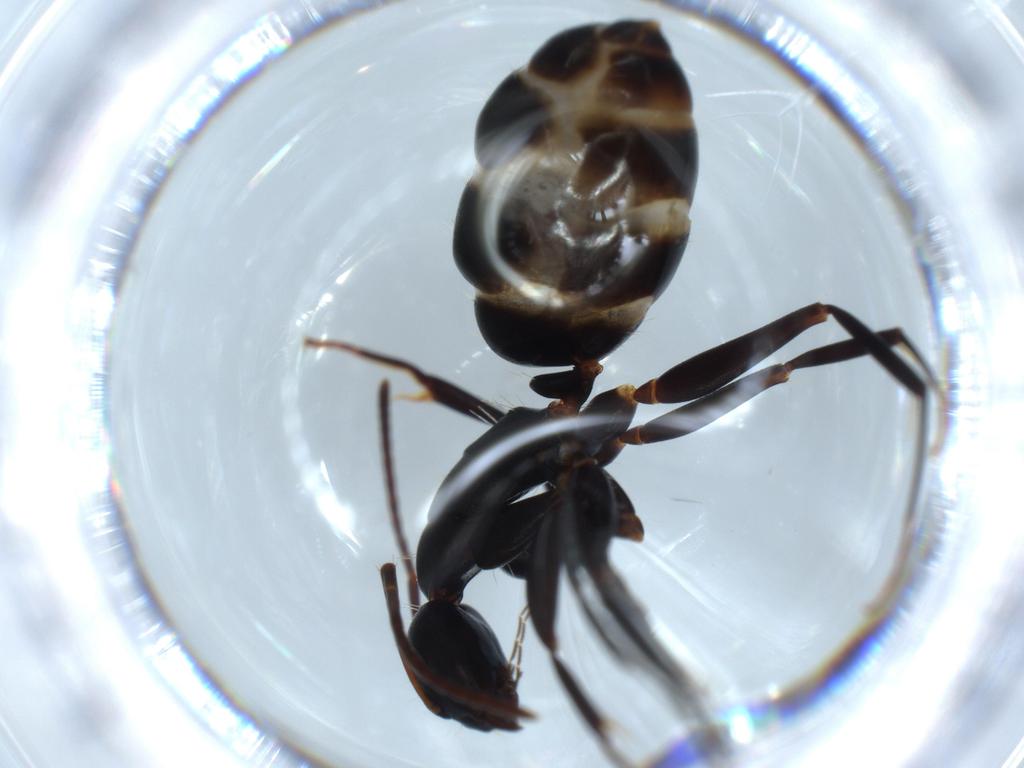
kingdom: Animalia
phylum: Arthropoda
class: Insecta
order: Hymenoptera
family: Formicidae
